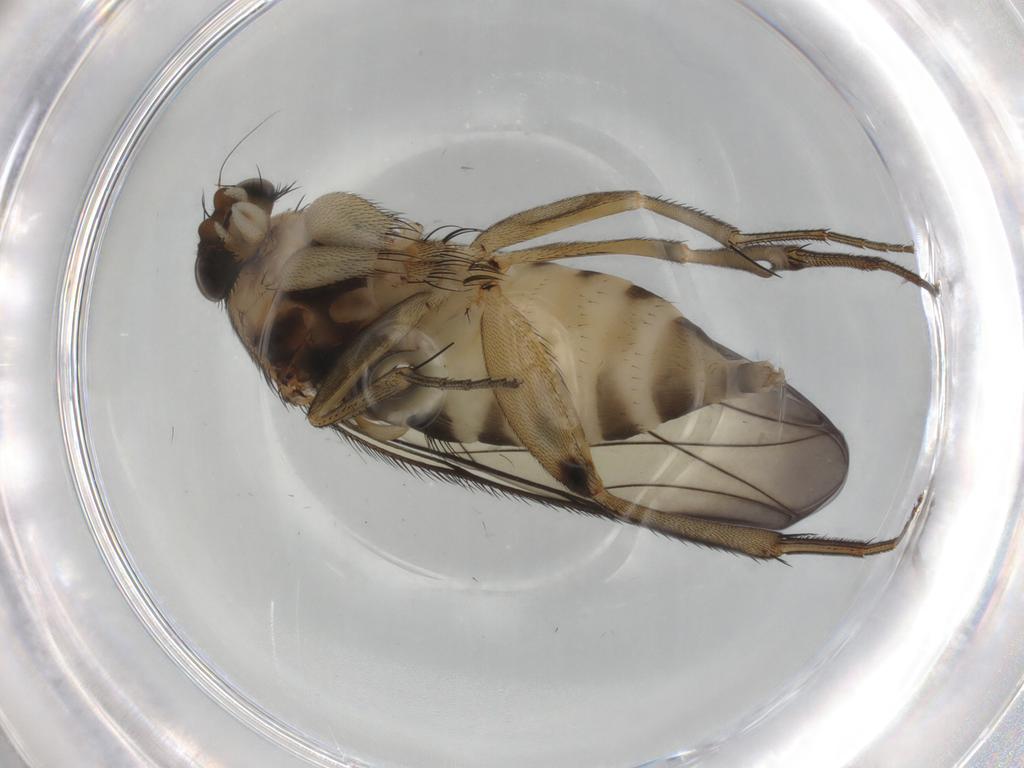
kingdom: Animalia
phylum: Arthropoda
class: Insecta
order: Diptera
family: Phoridae
